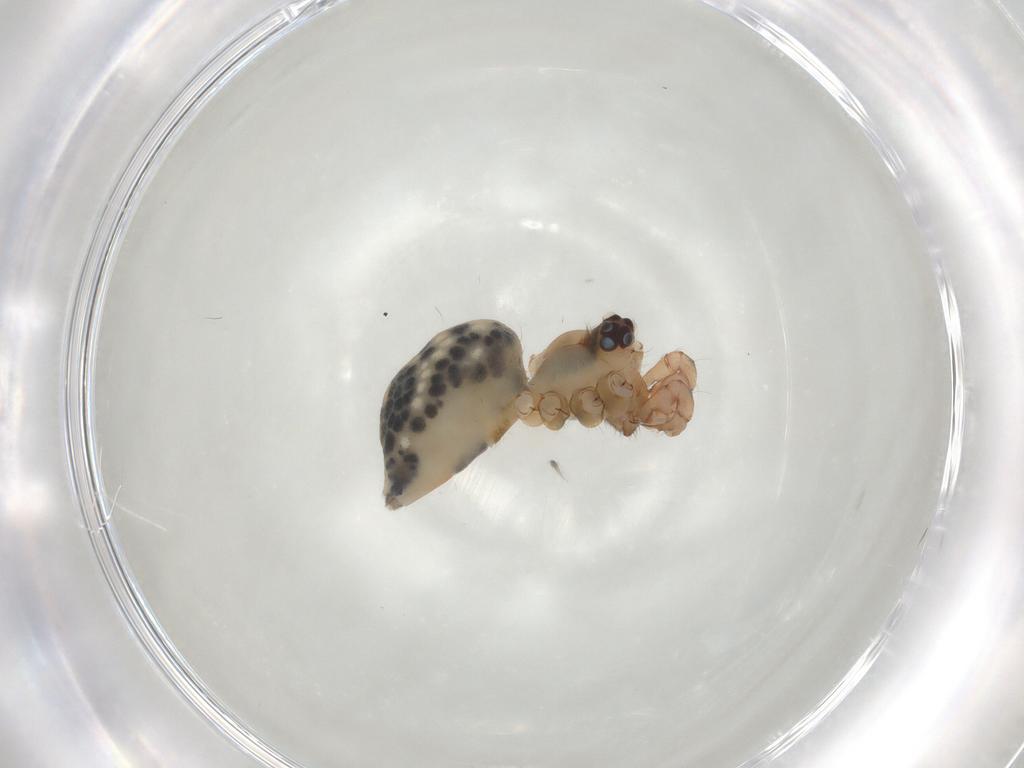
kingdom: Animalia
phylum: Arthropoda
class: Arachnida
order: Araneae
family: Pholcidae
